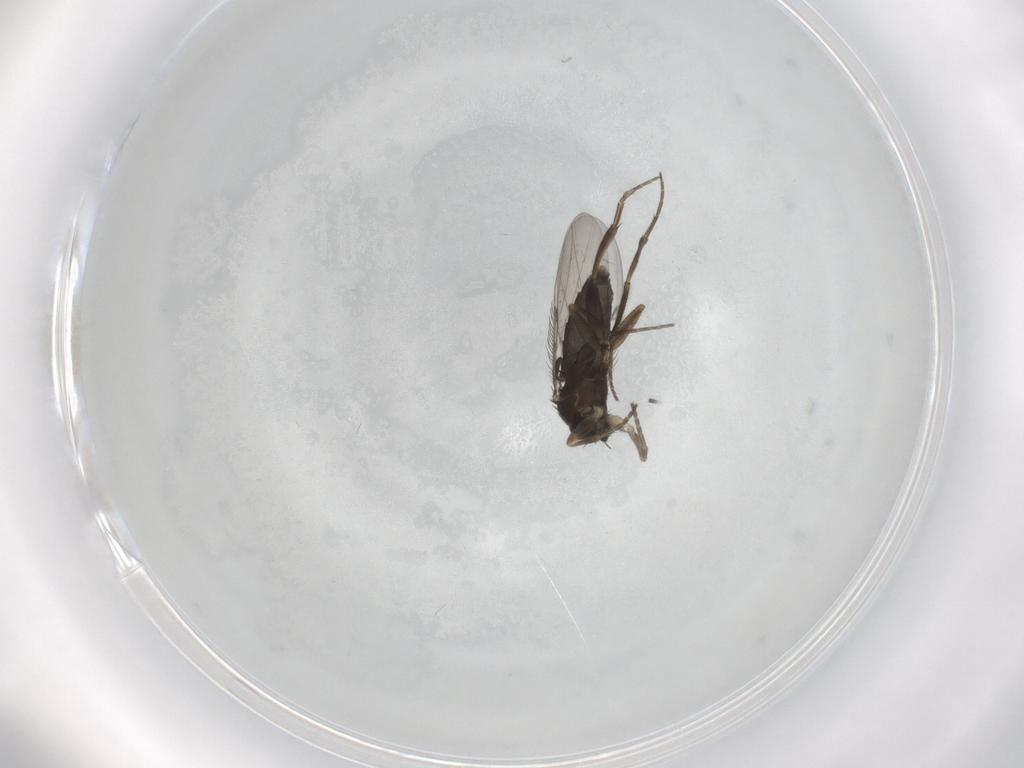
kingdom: Animalia
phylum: Arthropoda
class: Insecta
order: Diptera
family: Phoridae
